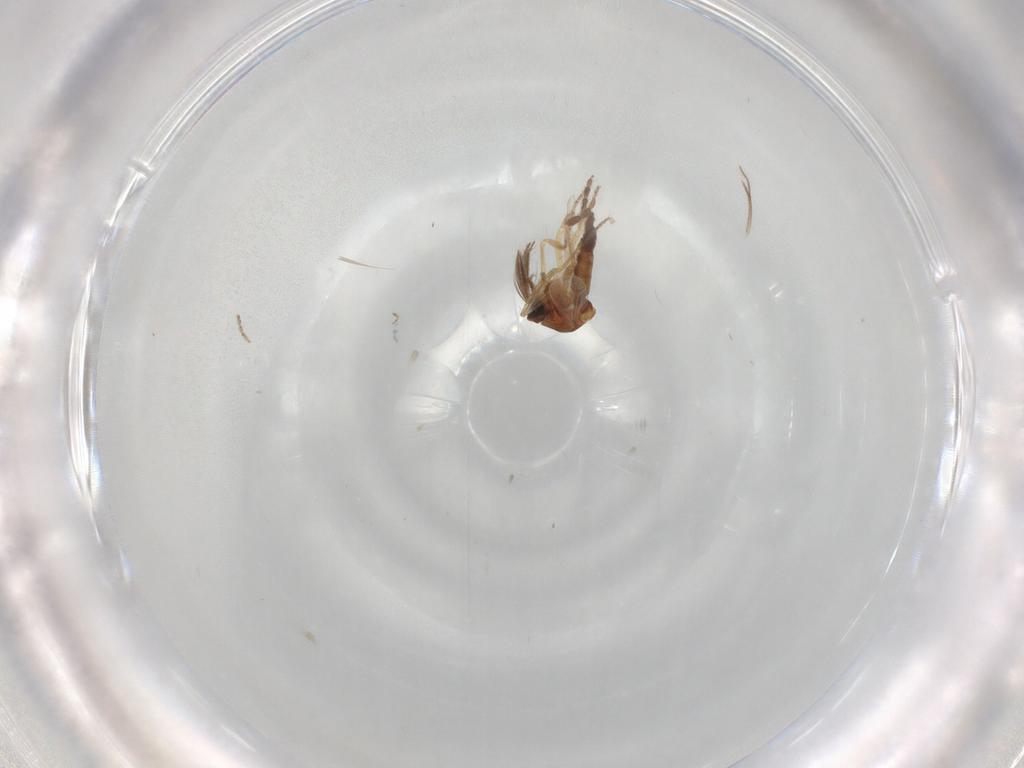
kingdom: Animalia
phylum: Arthropoda
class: Insecta
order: Diptera
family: Ceratopogonidae
